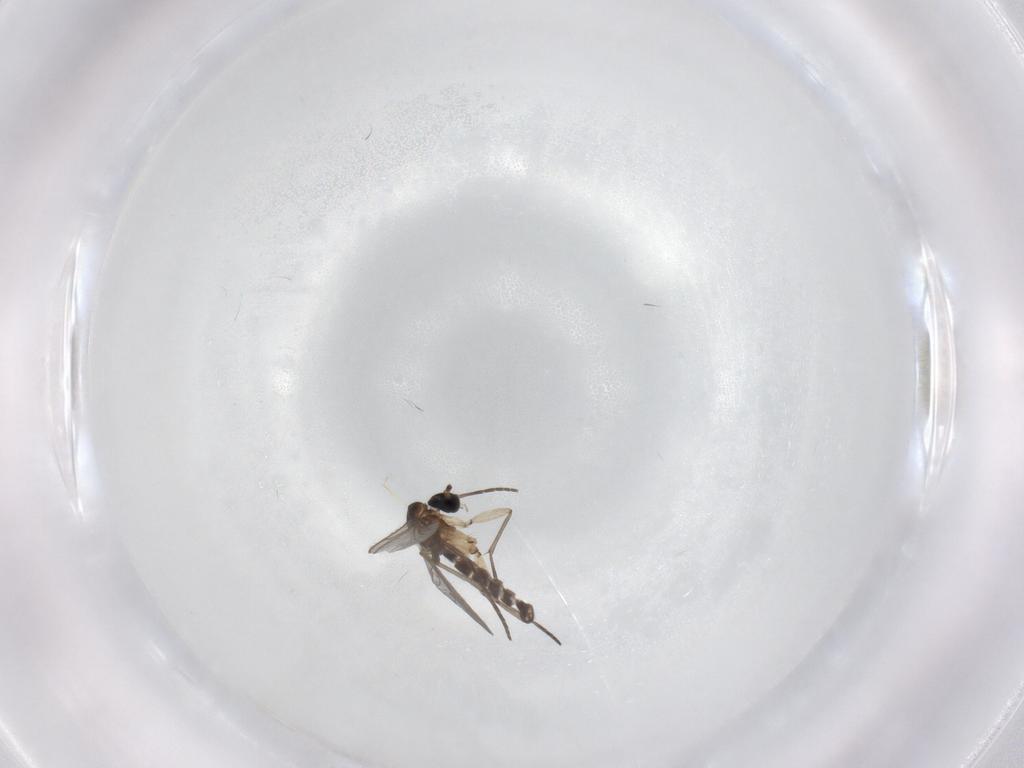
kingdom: Animalia
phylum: Arthropoda
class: Insecta
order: Diptera
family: Sciaridae
